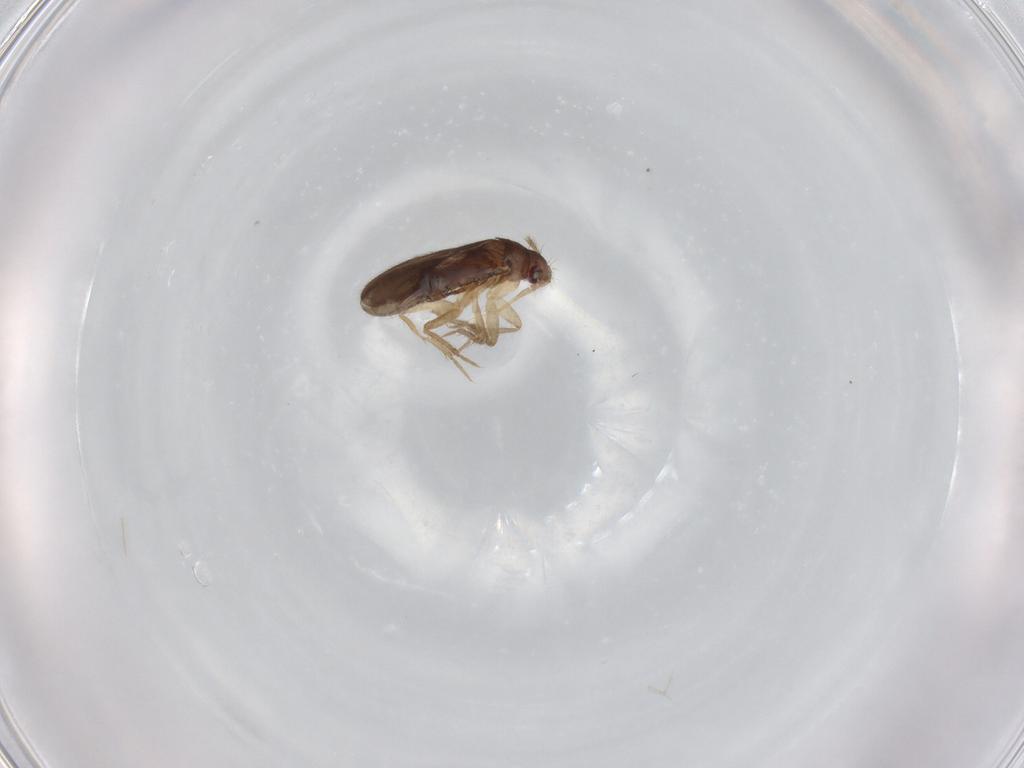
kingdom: Animalia
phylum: Arthropoda
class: Insecta
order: Hemiptera
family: Ceratocombidae
